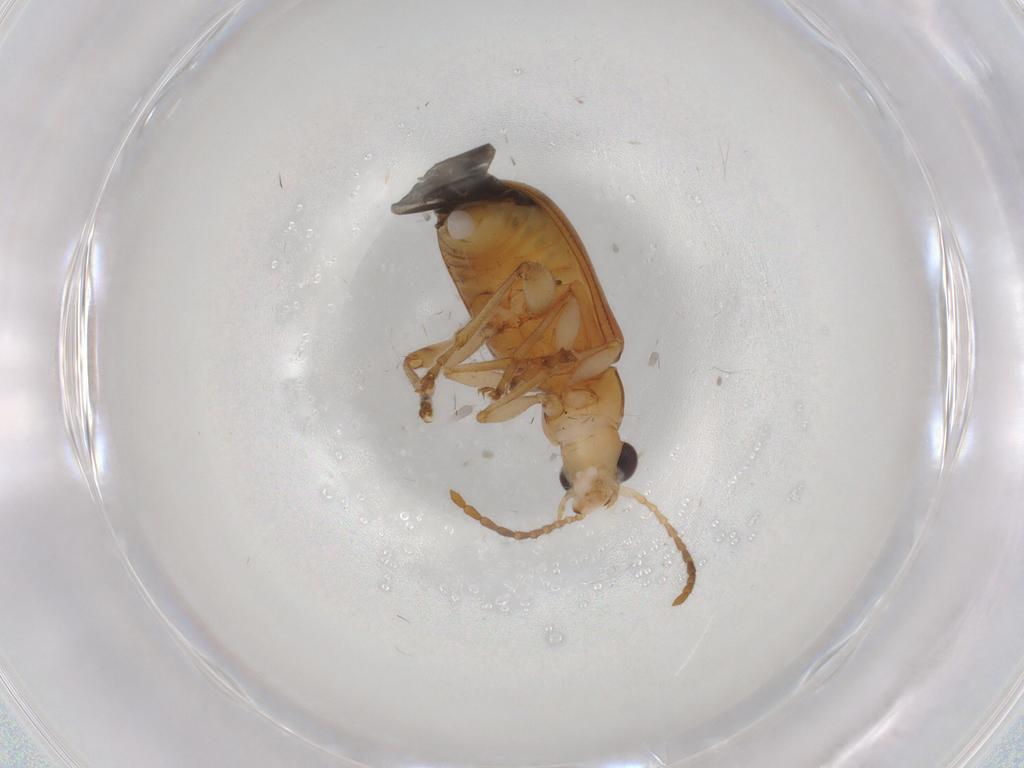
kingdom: Animalia
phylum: Arthropoda
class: Insecta
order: Coleoptera
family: Chrysomelidae
